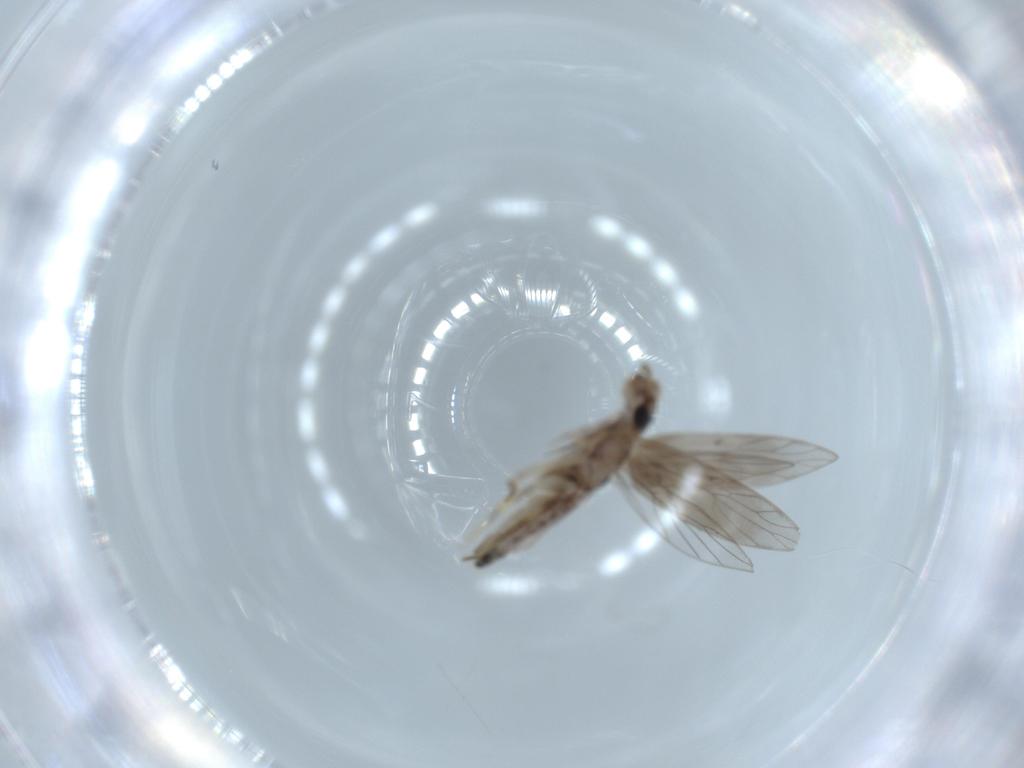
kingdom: Animalia
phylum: Arthropoda
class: Insecta
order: Psocodea
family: Lepidopsocidae
